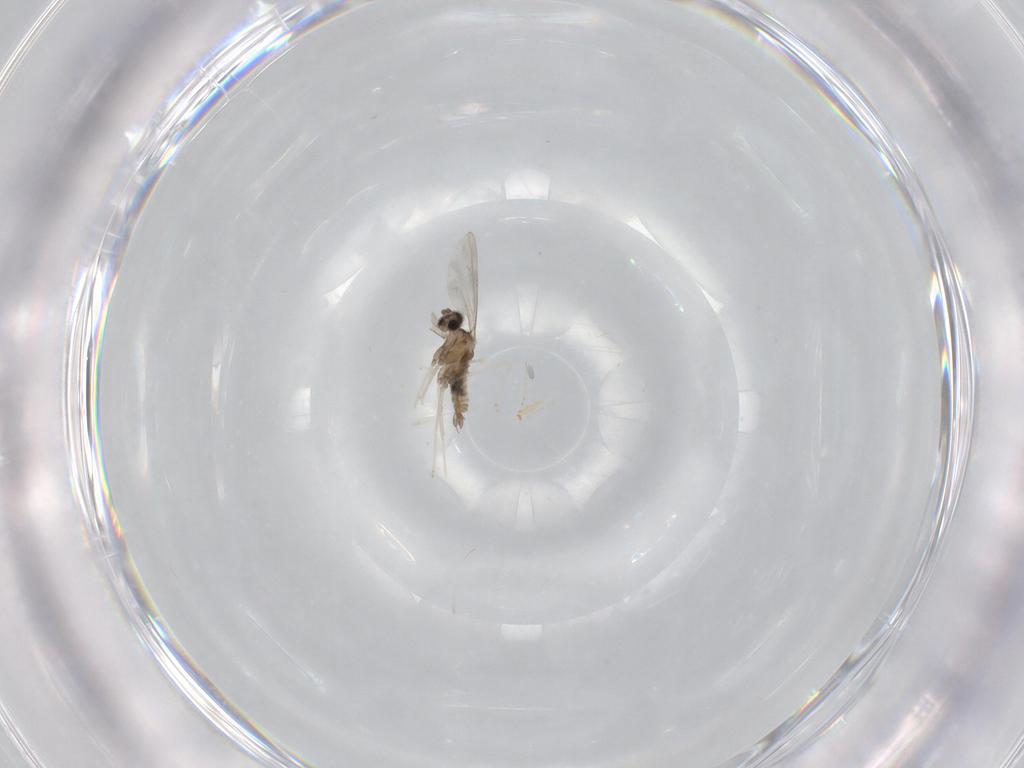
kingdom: Animalia
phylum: Arthropoda
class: Insecta
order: Diptera
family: Cecidomyiidae
